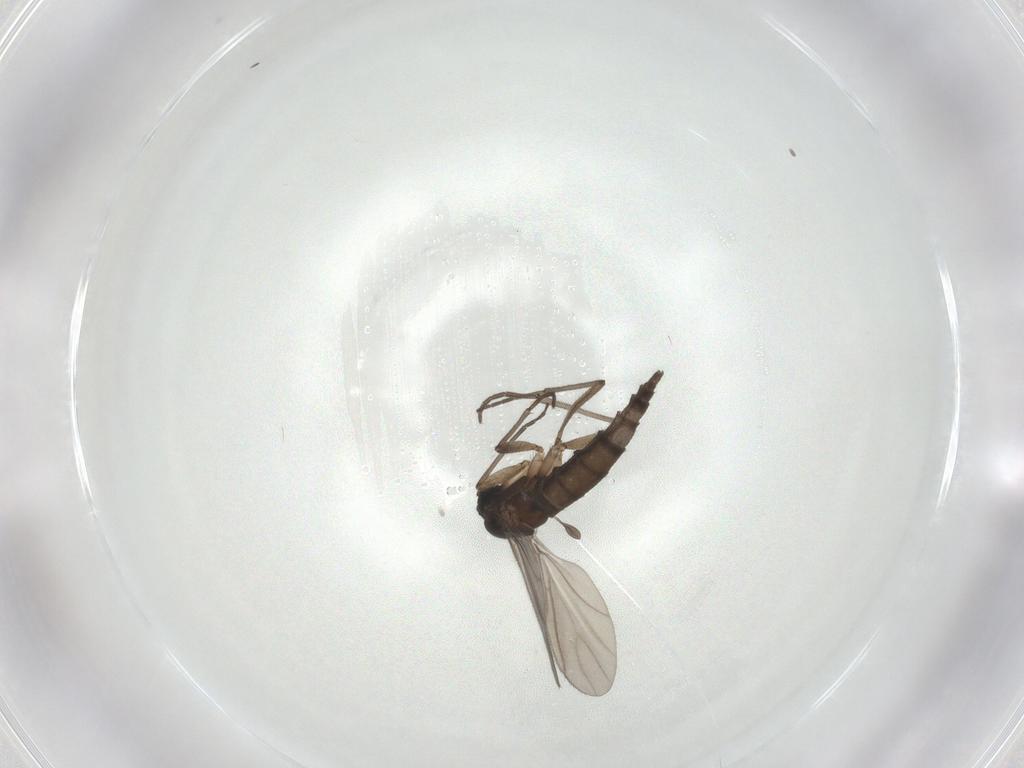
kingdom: Animalia
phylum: Arthropoda
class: Insecta
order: Diptera
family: Sciaridae
